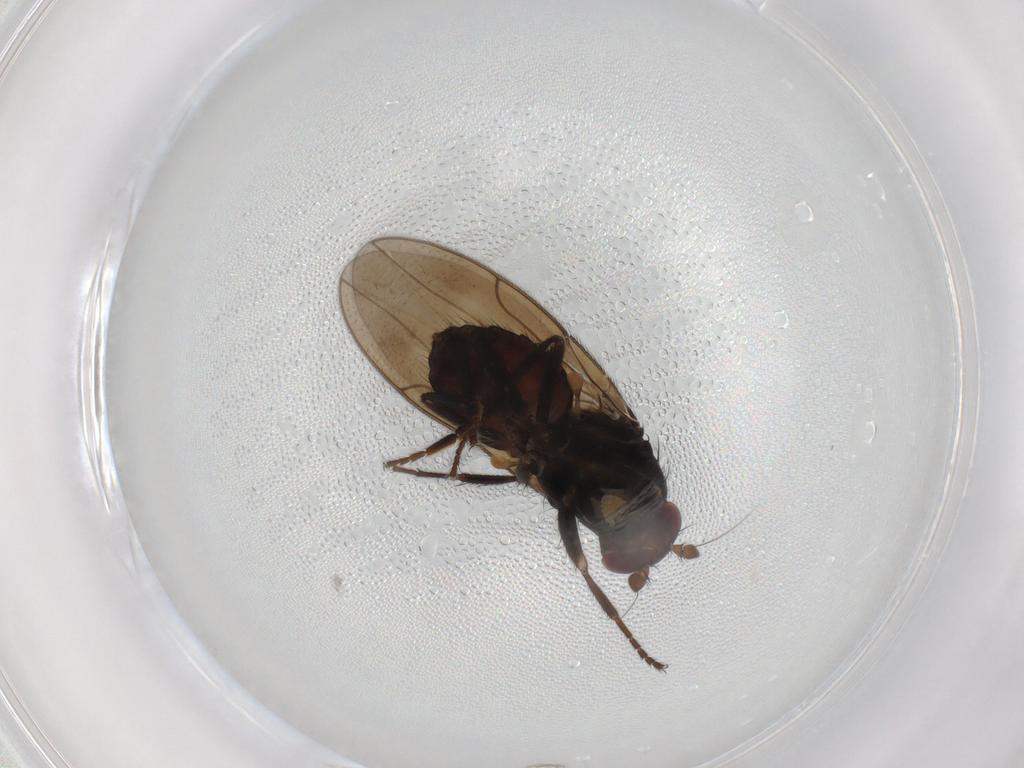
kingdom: Animalia
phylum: Arthropoda
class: Insecta
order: Diptera
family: Sphaeroceridae
